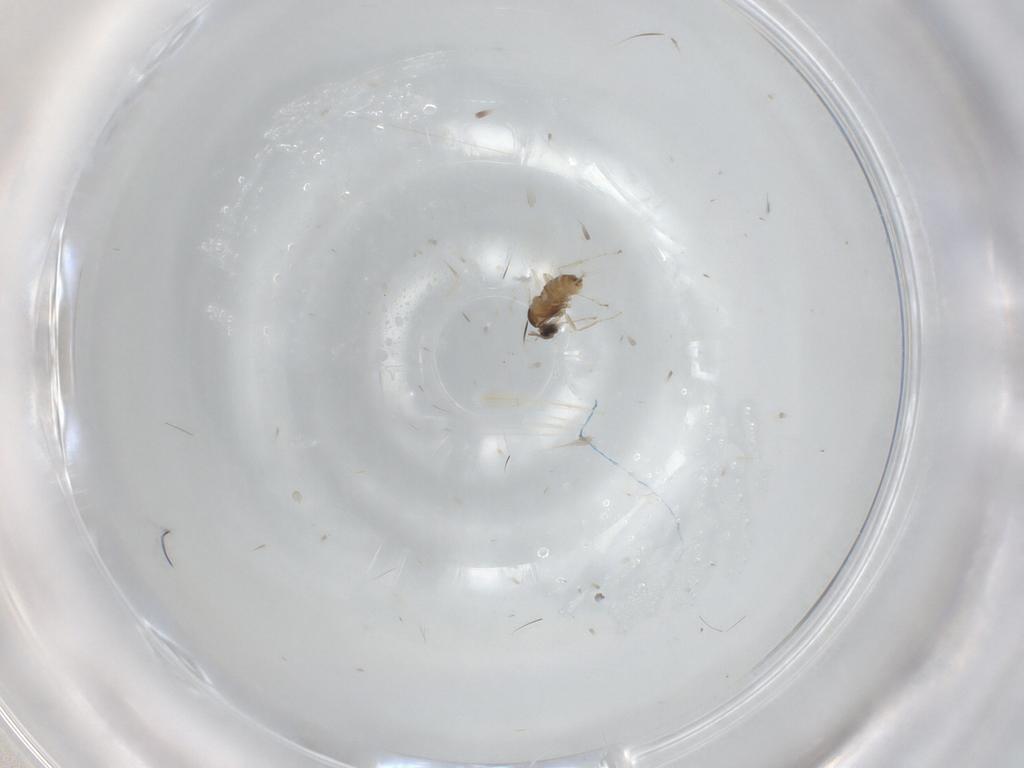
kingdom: Animalia
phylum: Arthropoda
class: Insecta
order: Diptera
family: Cecidomyiidae
